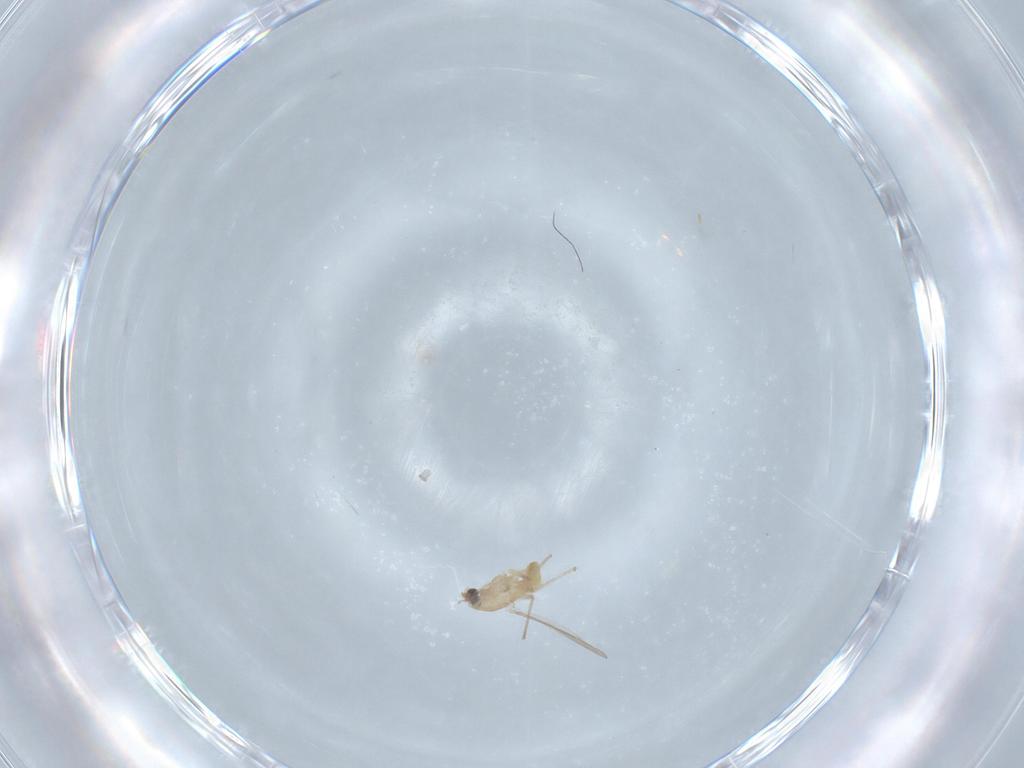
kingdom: Animalia
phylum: Arthropoda
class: Insecta
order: Diptera
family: Chironomidae
